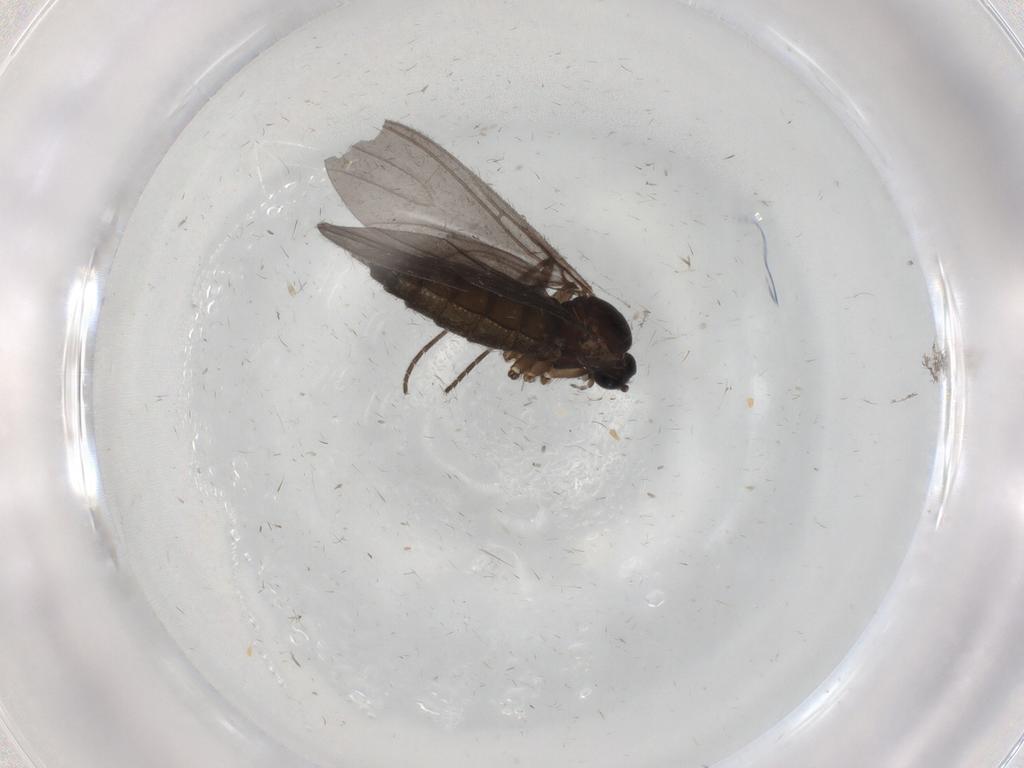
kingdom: Animalia
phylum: Arthropoda
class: Insecta
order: Diptera
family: Sciaridae
